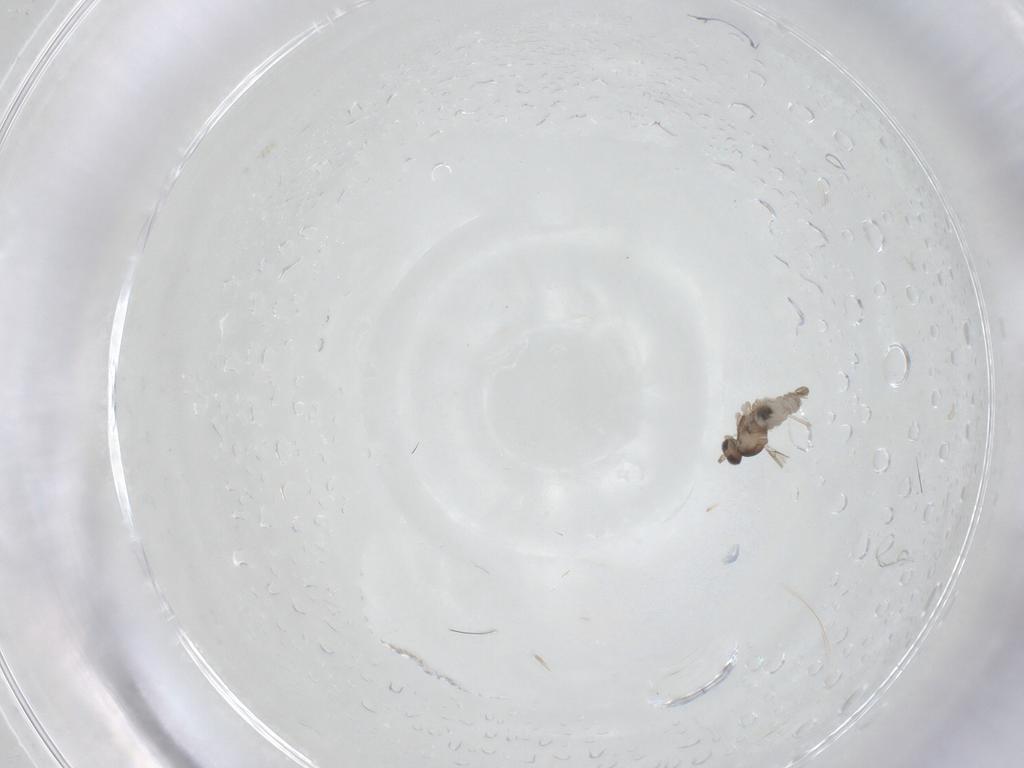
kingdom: Animalia
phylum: Arthropoda
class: Insecta
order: Diptera
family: Cecidomyiidae
